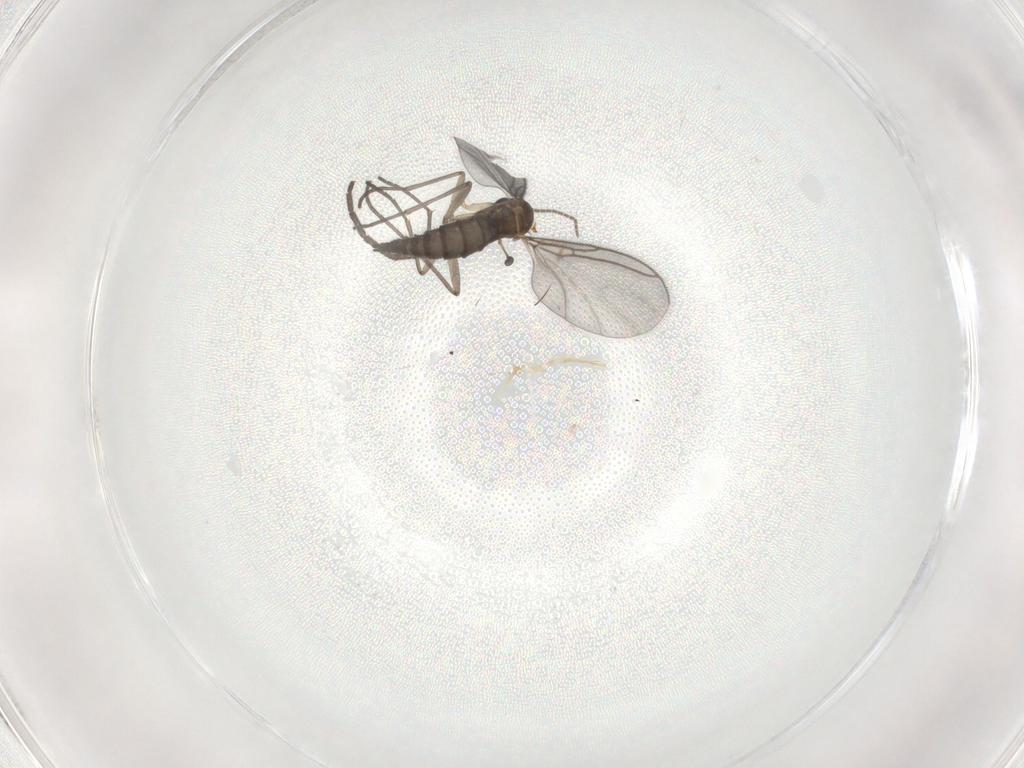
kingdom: Animalia
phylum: Arthropoda
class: Insecta
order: Diptera
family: Sciaridae
